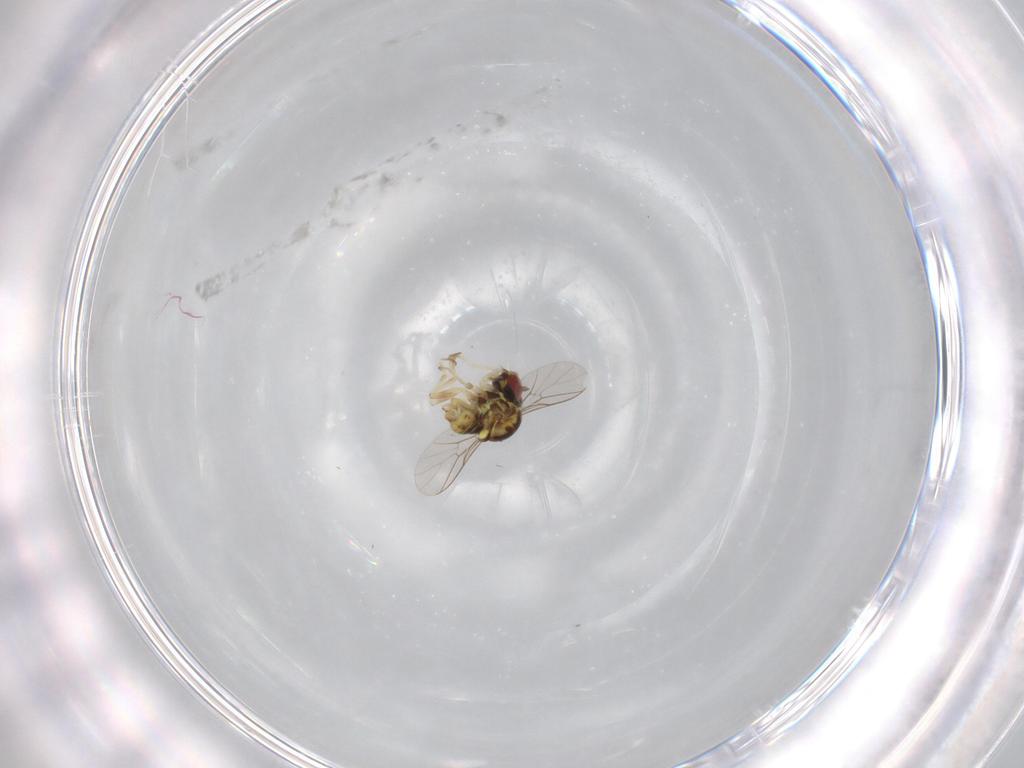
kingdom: Animalia
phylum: Arthropoda
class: Insecta
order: Diptera
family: Bombyliidae
